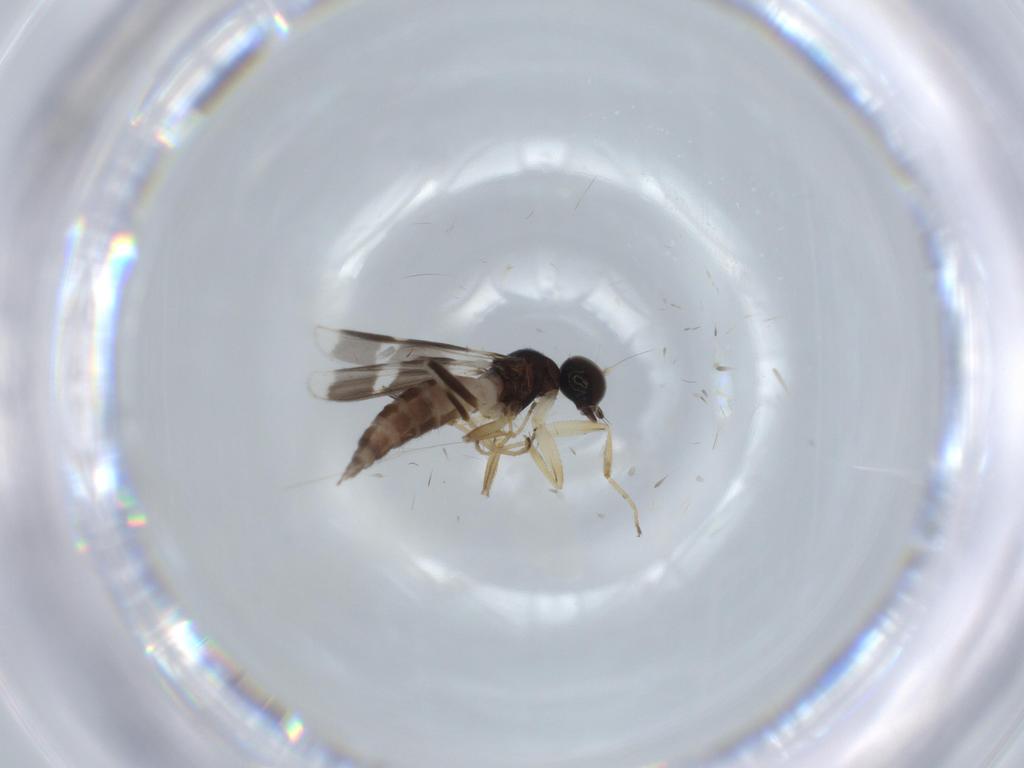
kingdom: Animalia
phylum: Arthropoda
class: Insecta
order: Diptera
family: Hybotidae
